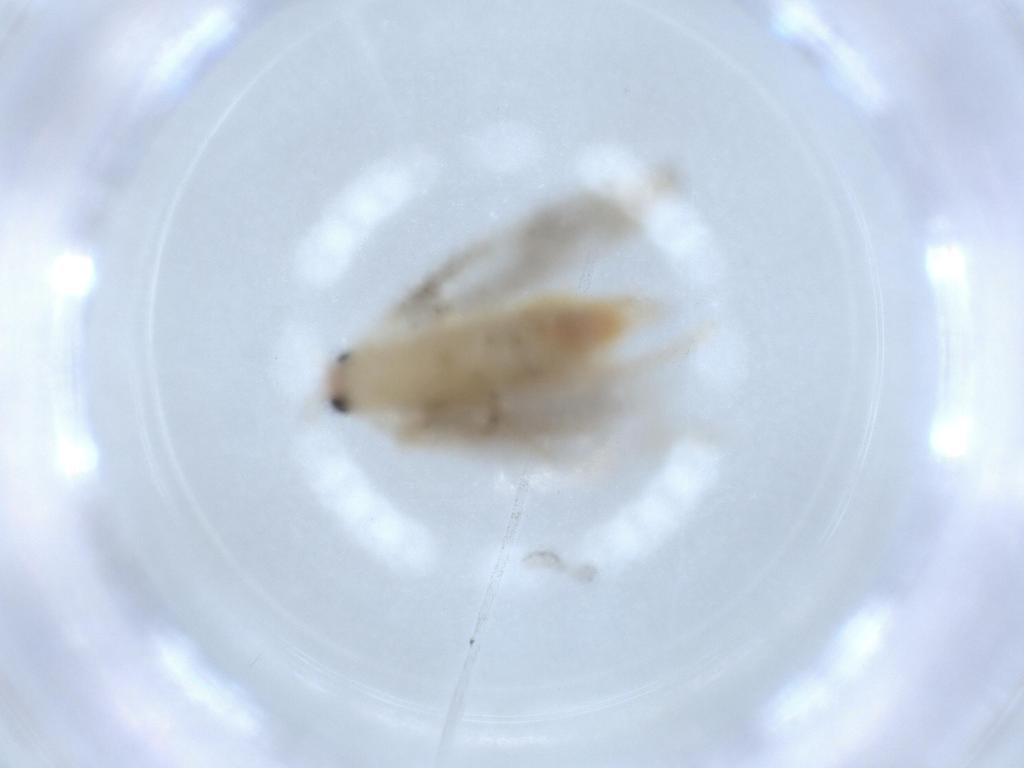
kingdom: Animalia
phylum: Arthropoda
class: Insecta
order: Lepidoptera
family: Tineidae
